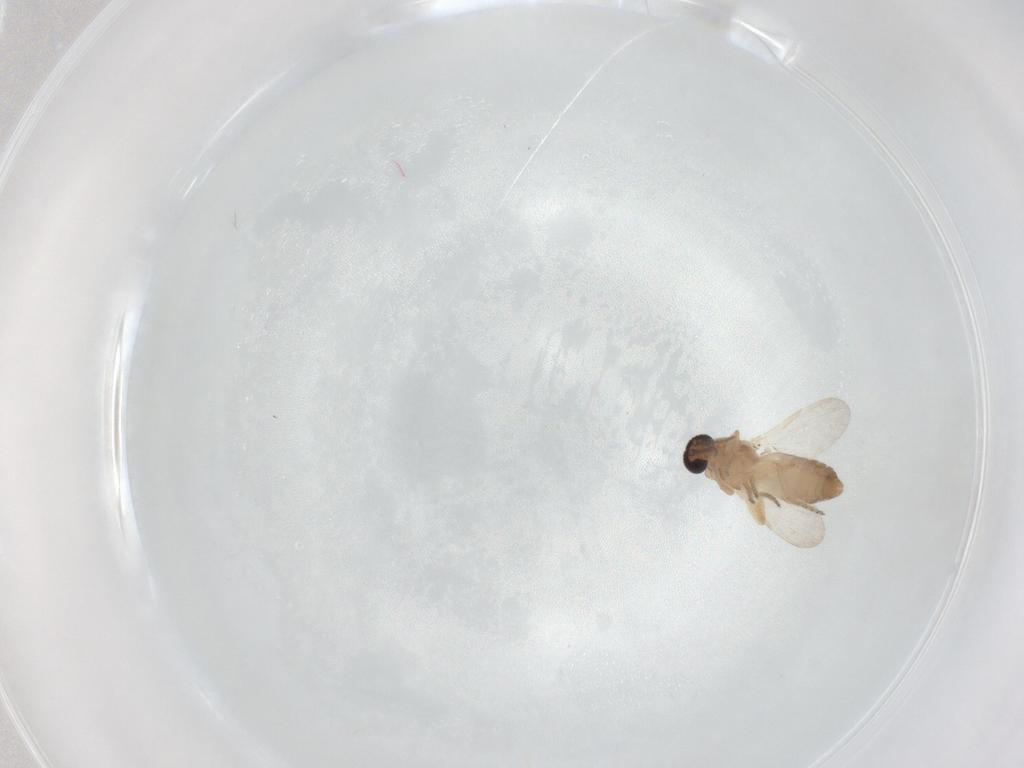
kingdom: Animalia
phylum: Arthropoda
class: Insecta
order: Diptera
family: Ceratopogonidae
